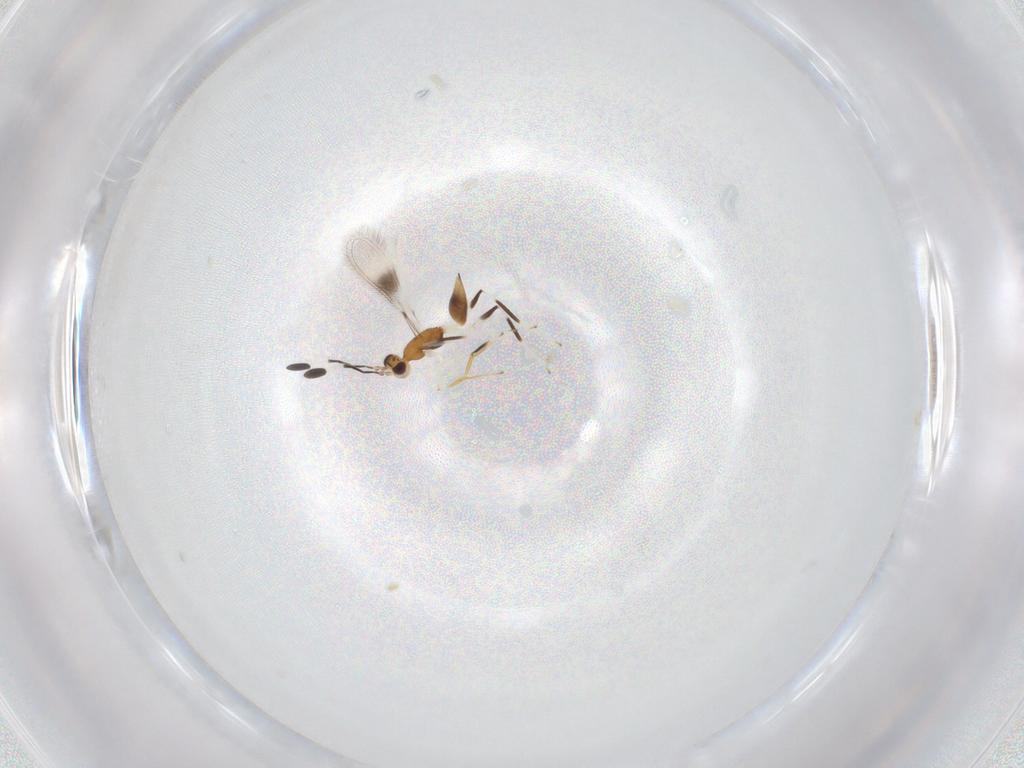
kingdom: Animalia
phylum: Arthropoda
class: Insecta
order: Hymenoptera
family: Mymaridae
